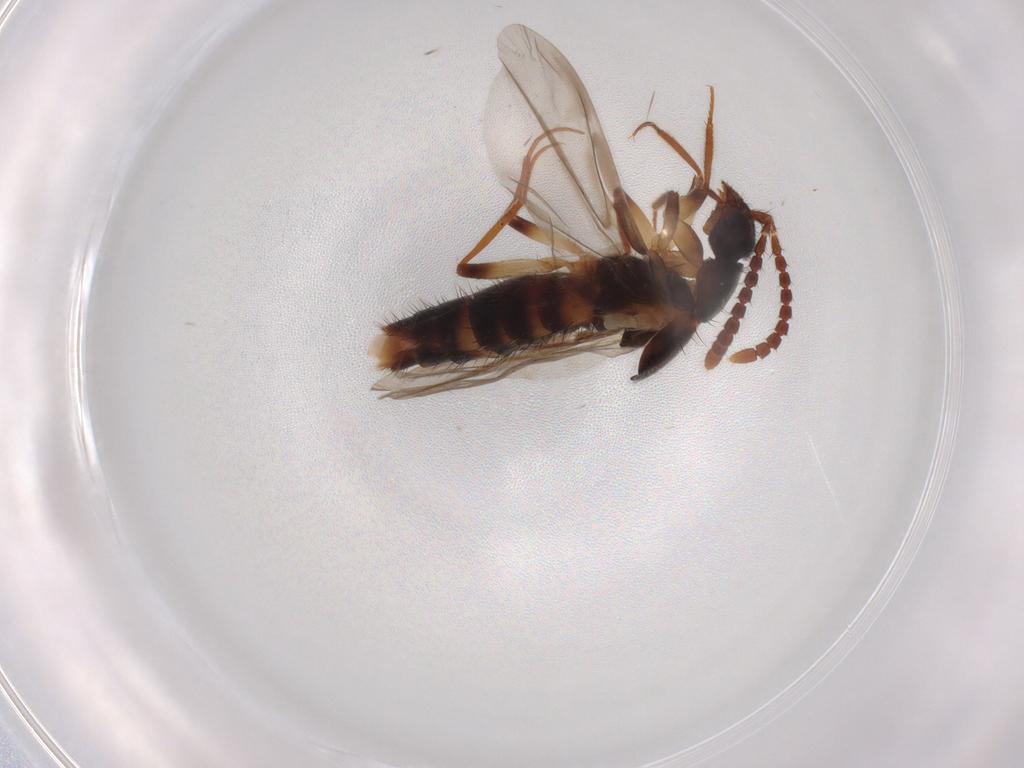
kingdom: Animalia
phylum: Arthropoda
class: Insecta
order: Coleoptera
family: Staphylinidae
